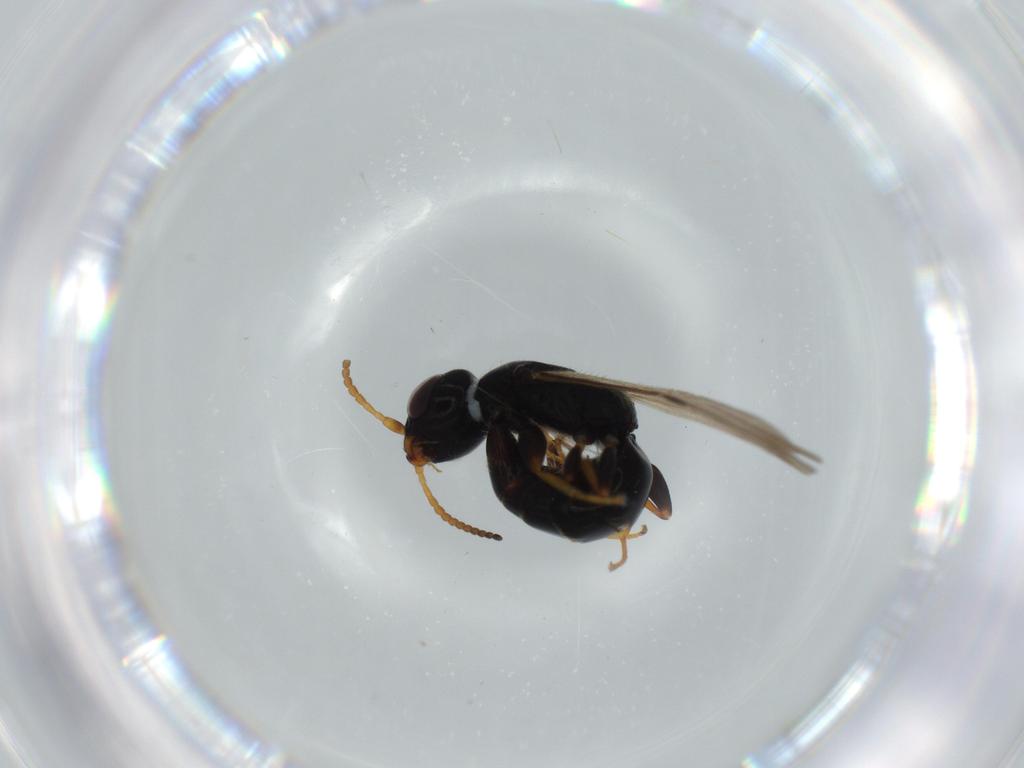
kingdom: Animalia
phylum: Arthropoda
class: Insecta
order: Hymenoptera
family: Bethylidae
